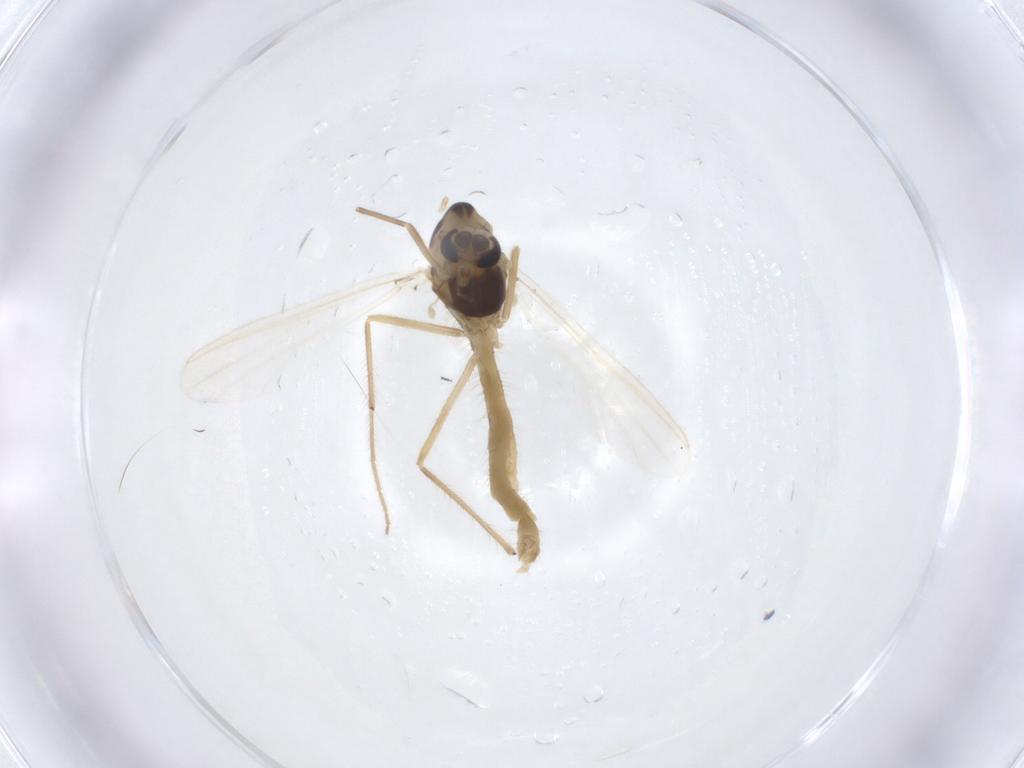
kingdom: Animalia
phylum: Arthropoda
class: Insecta
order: Diptera
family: Chironomidae
